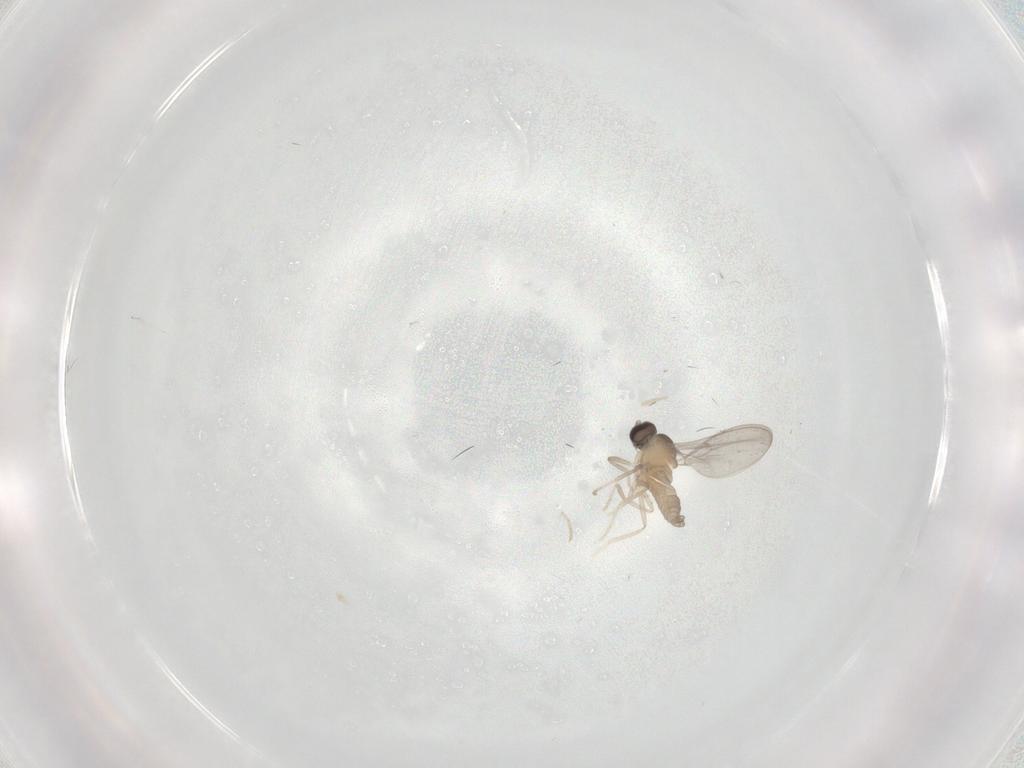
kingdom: Animalia
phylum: Arthropoda
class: Insecta
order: Diptera
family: Cecidomyiidae
